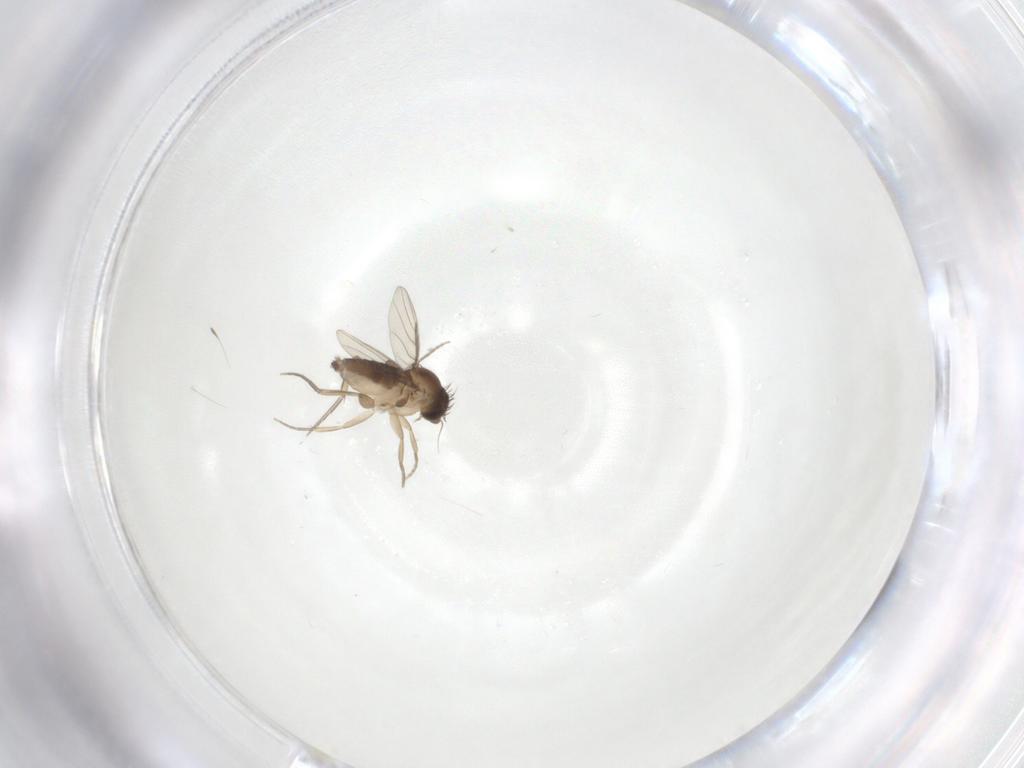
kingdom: Animalia
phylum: Arthropoda
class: Insecta
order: Diptera
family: Phoridae
